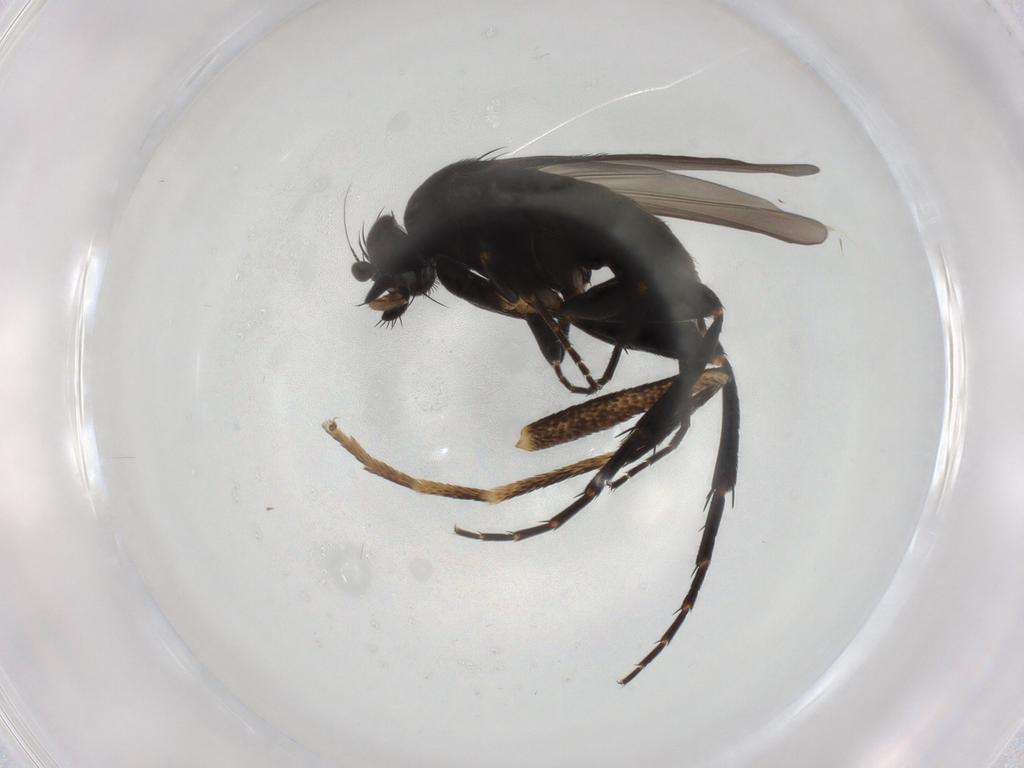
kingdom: Animalia
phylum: Arthropoda
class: Insecta
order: Diptera
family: Phoridae
